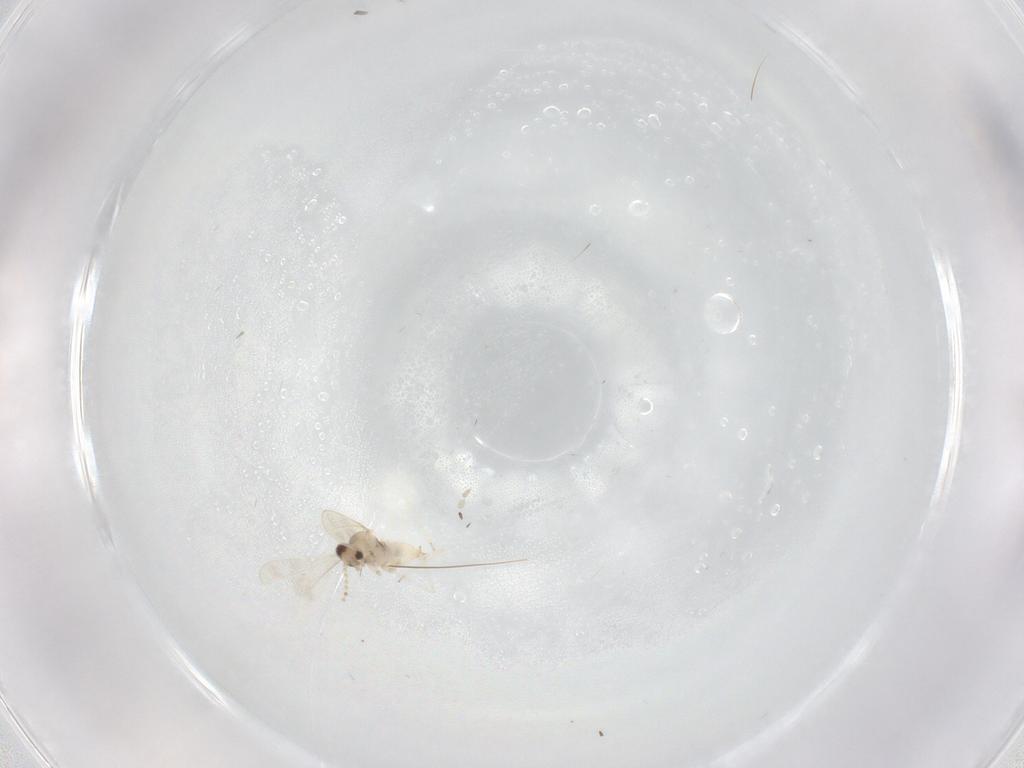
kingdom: Animalia
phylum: Arthropoda
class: Insecta
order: Diptera
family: Cecidomyiidae
